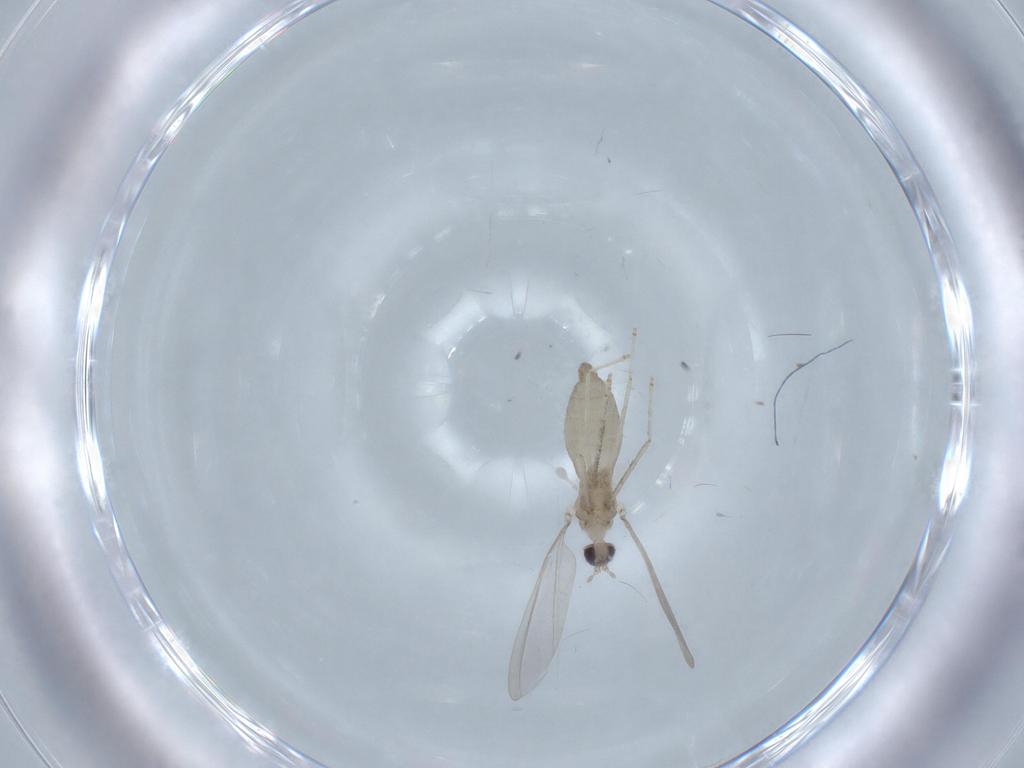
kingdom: Animalia
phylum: Arthropoda
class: Insecta
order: Diptera
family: Cecidomyiidae
